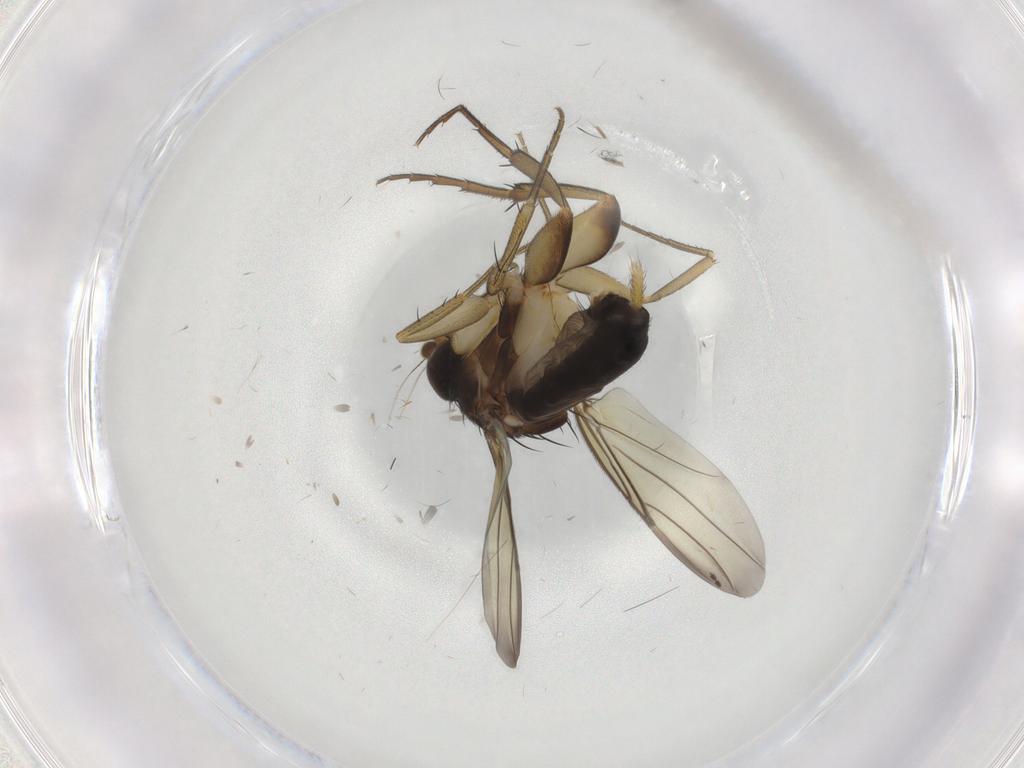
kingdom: Animalia
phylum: Arthropoda
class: Insecta
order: Diptera
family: Phoridae
